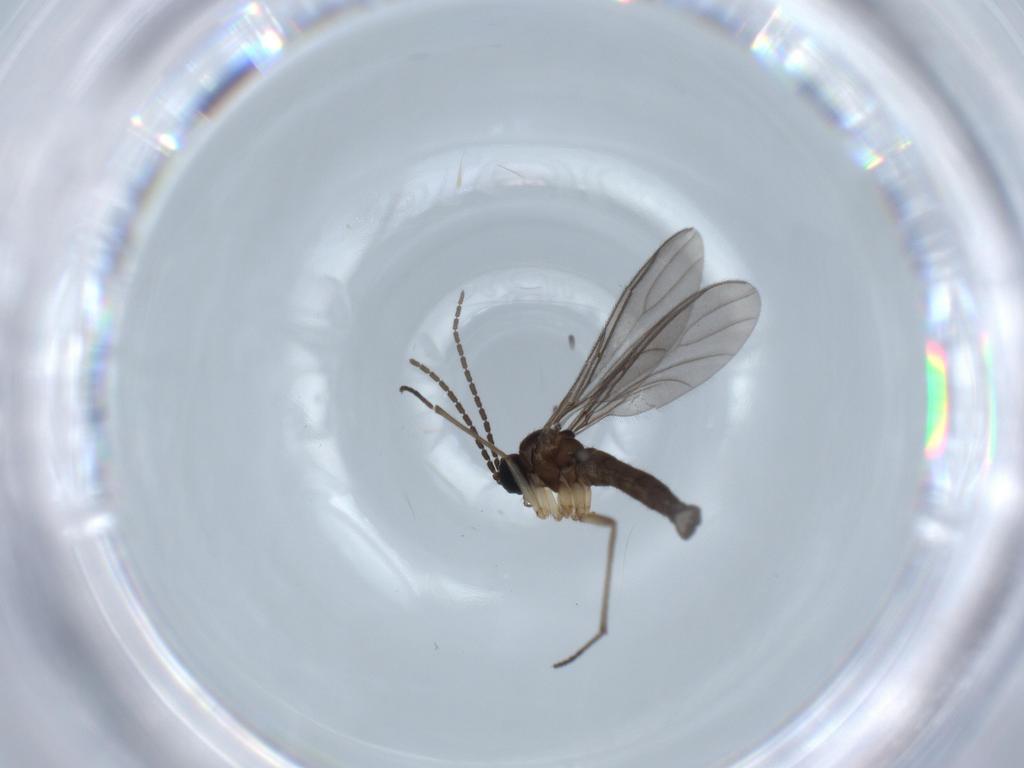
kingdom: Animalia
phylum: Arthropoda
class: Insecta
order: Diptera
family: Sciaridae
